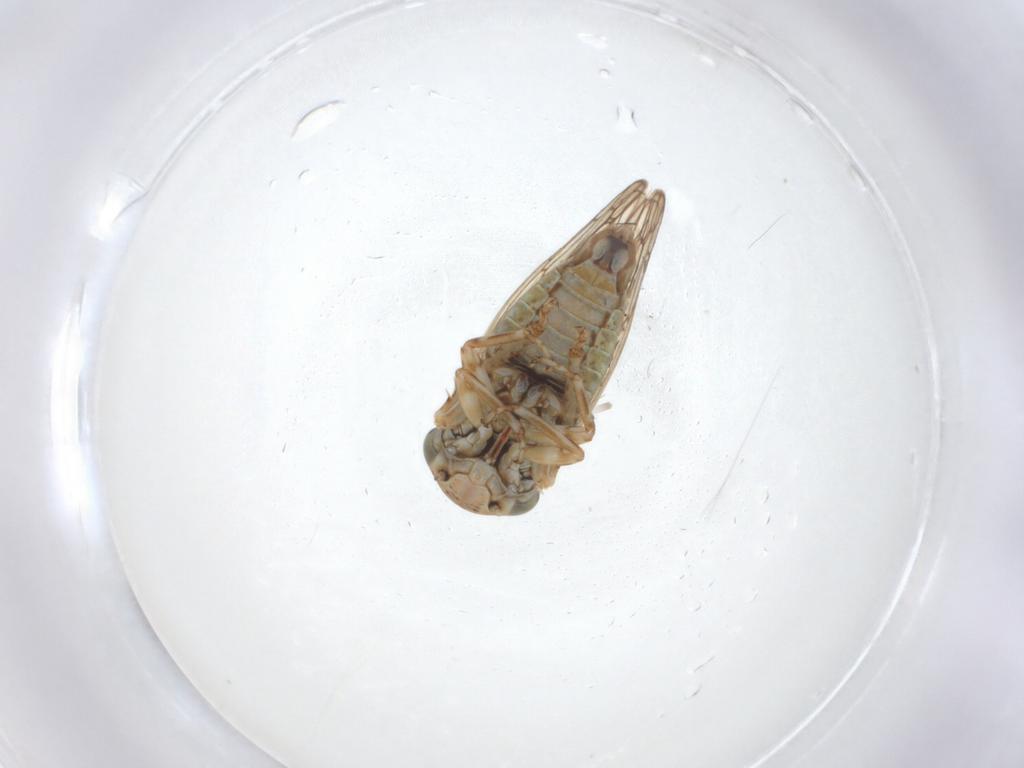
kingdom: Animalia
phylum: Arthropoda
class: Insecta
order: Hemiptera
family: Cicadellidae
